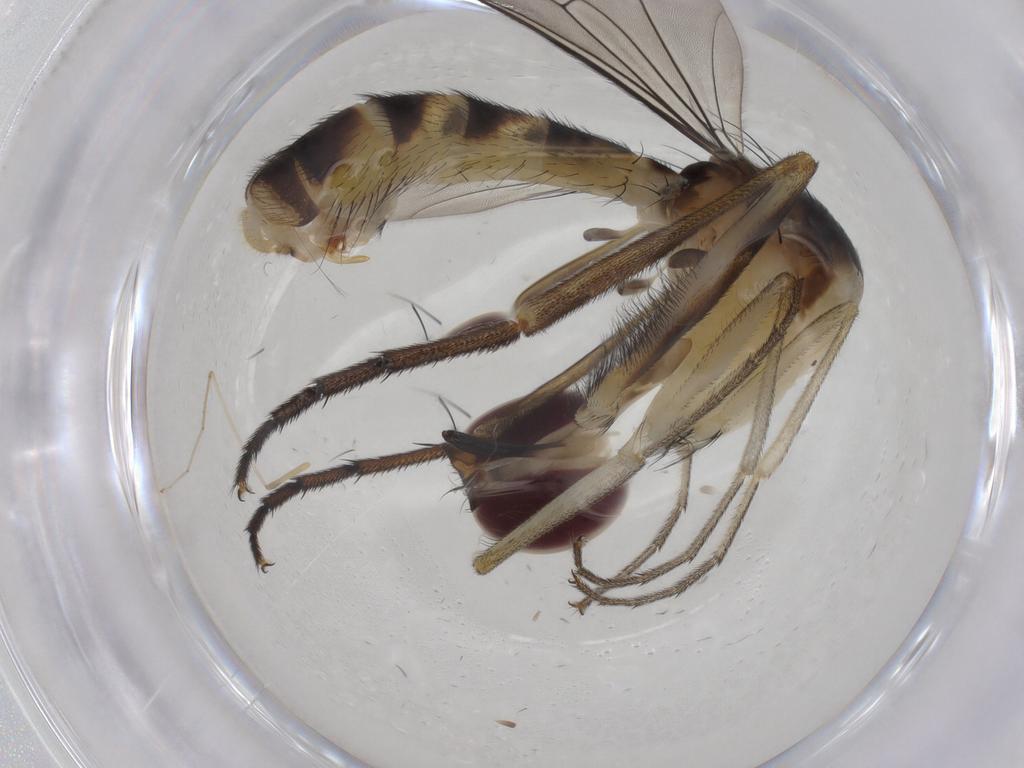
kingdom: Animalia
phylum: Arthropoda
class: Insecta
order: Diptera
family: Conopidae
